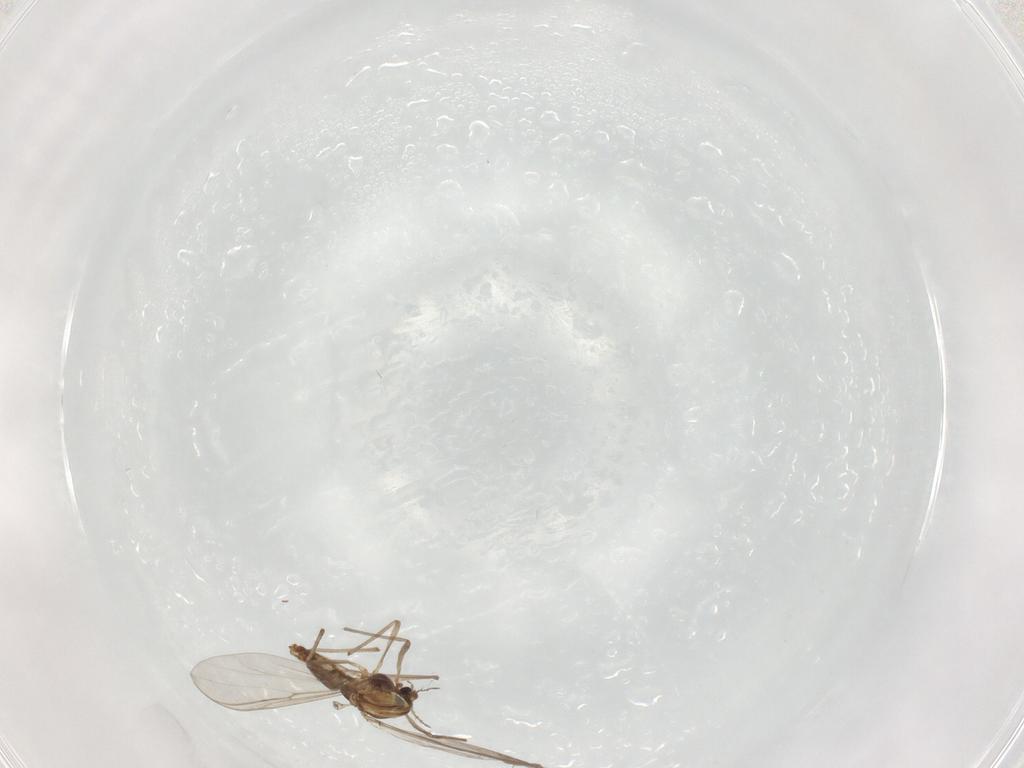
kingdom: Animalia
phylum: Arthropoda
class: Insecta
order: Diptera
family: Chironomidae
